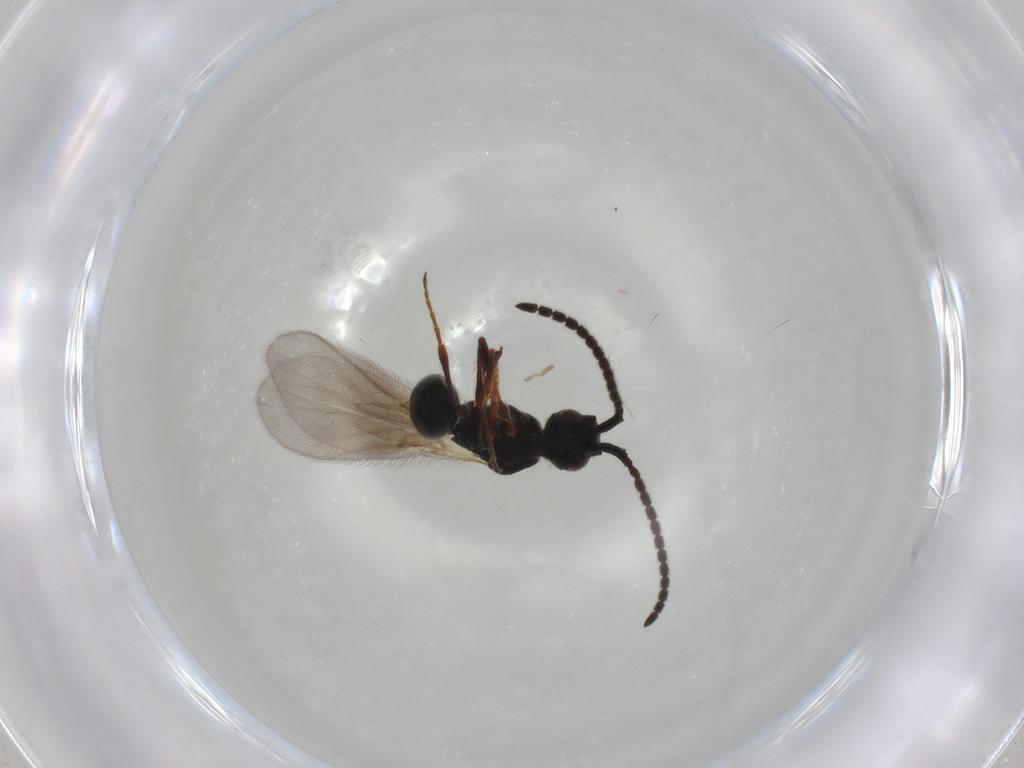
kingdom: Animalia
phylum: Arthropoda
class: Insecta
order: Hymenoptera
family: Diapriidae
